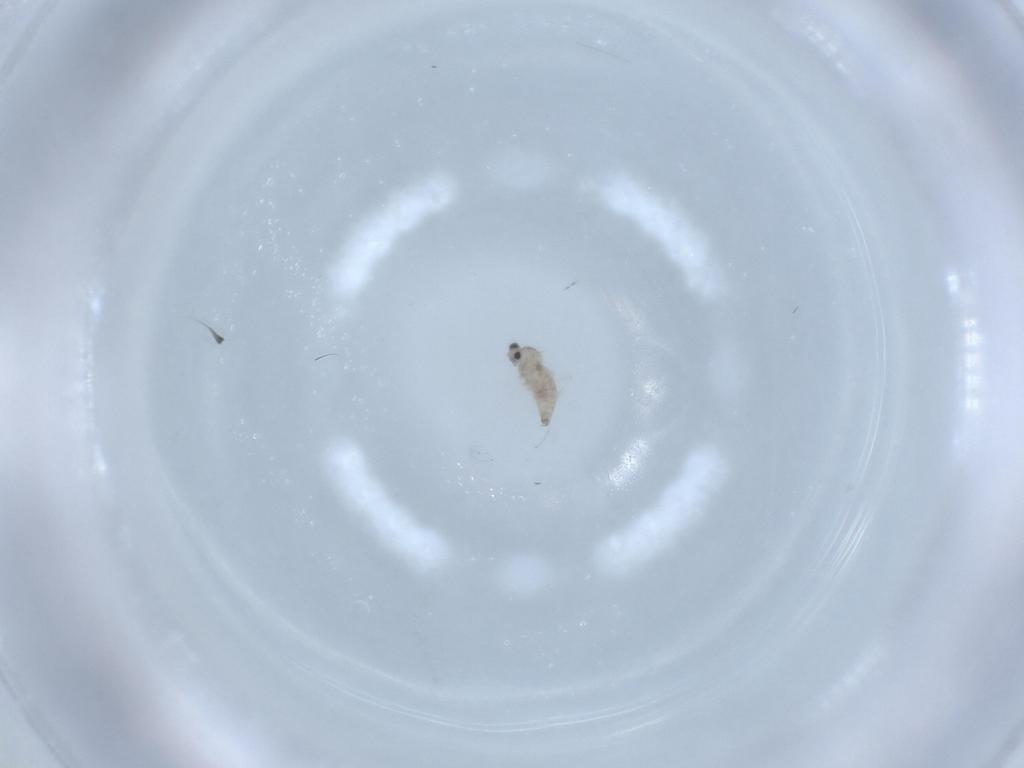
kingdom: Animalia
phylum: Arthropoda
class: Insecta
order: Diptera
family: Cecidomyiidae
